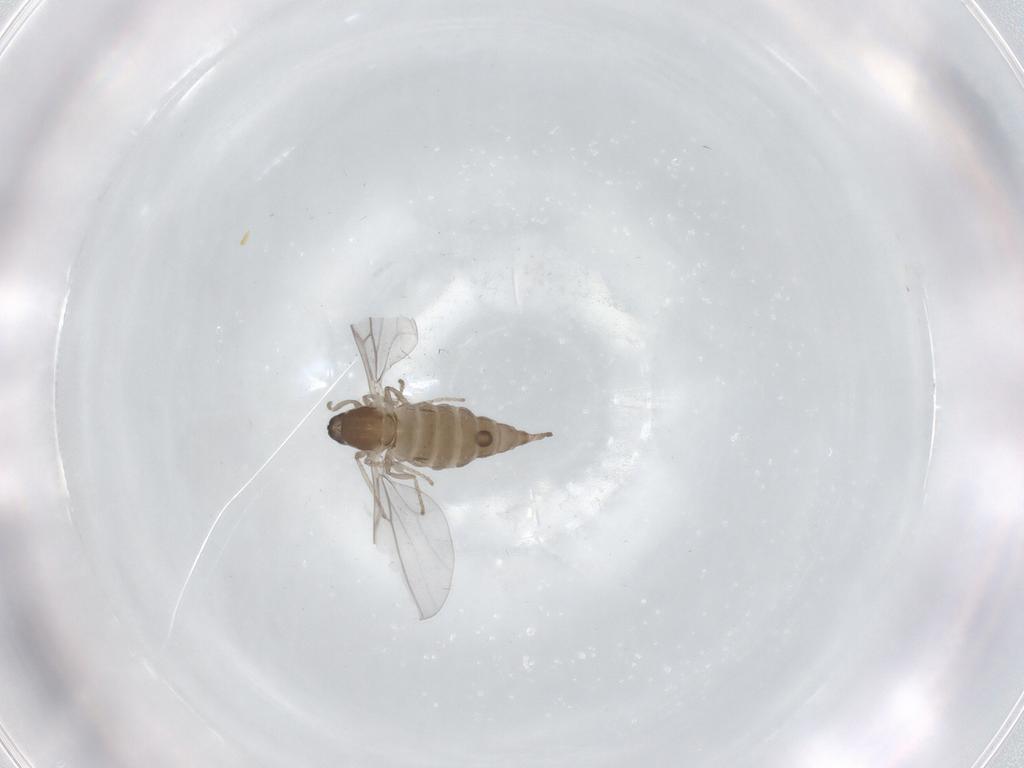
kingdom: Animalia
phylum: Arthropoda
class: Insecta
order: Diptera
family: Cecidomyiidae
